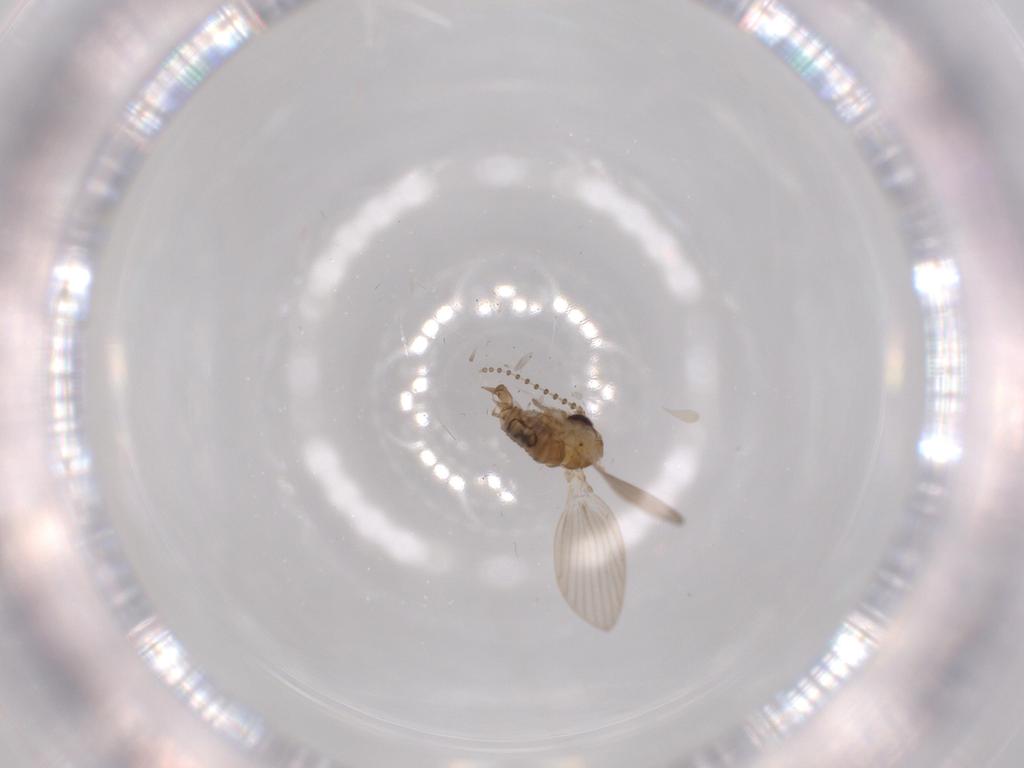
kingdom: Animalia
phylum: Arthropoda
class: Insecta
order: Diptera
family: Psychodidae
